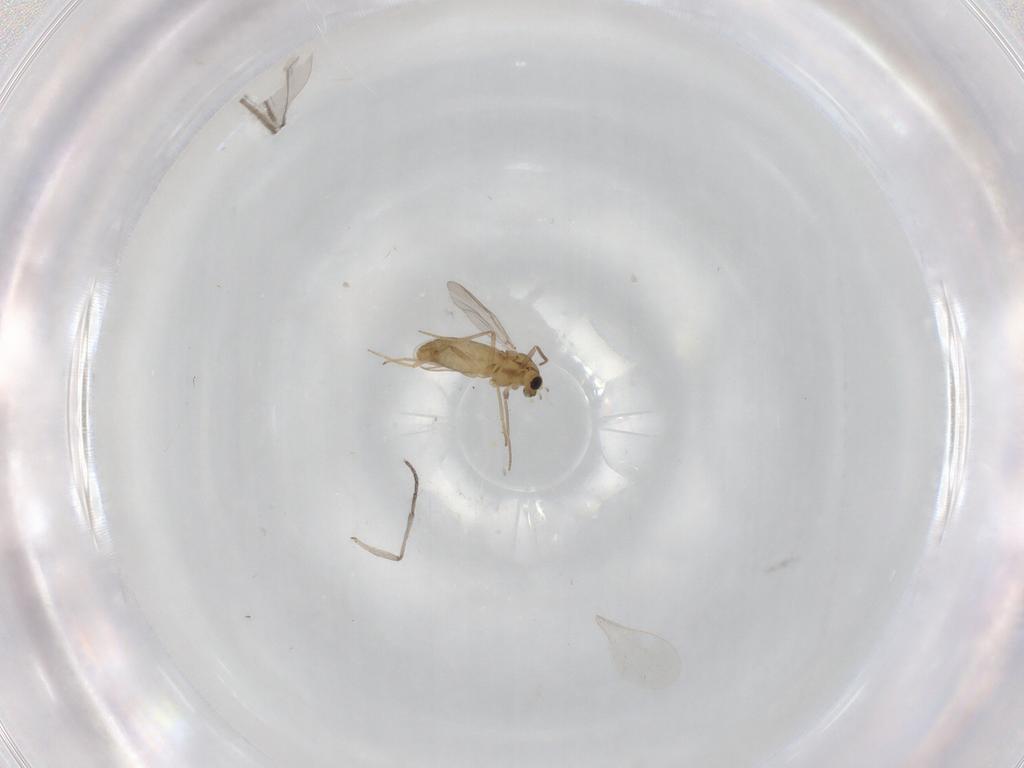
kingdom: Animalia
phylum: Arthropoda
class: Insecta
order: Diptera
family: Chironomidae
